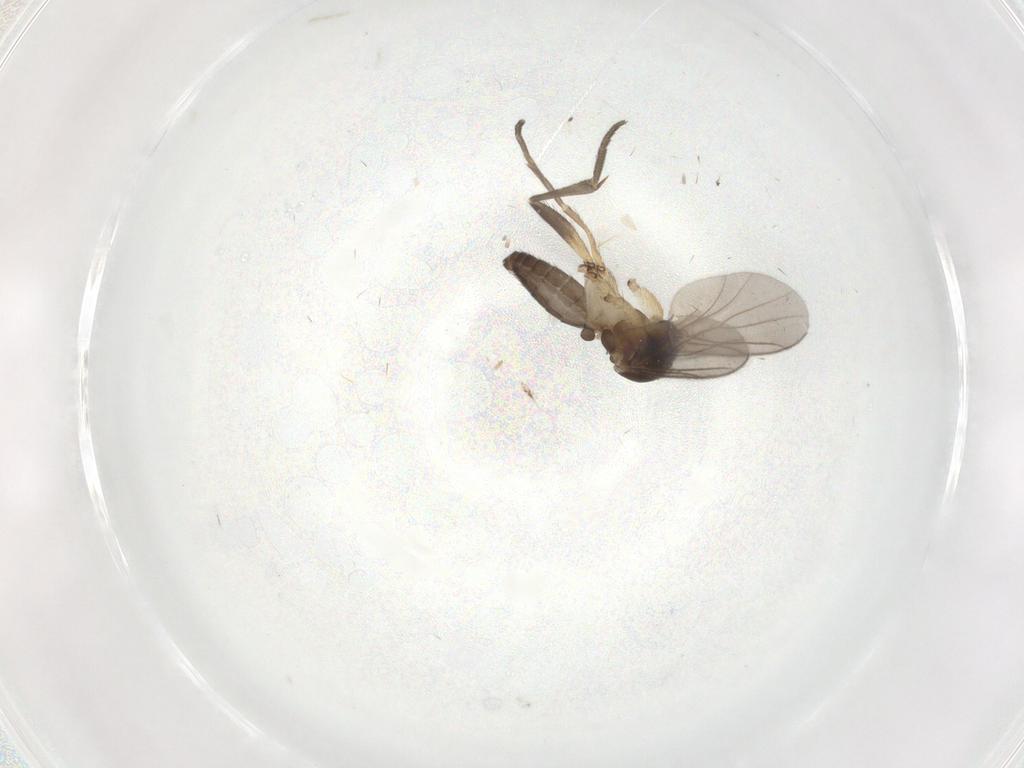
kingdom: Animalia
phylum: Arthropoda
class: Insecta
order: Diptera
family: Mycetophilidae
